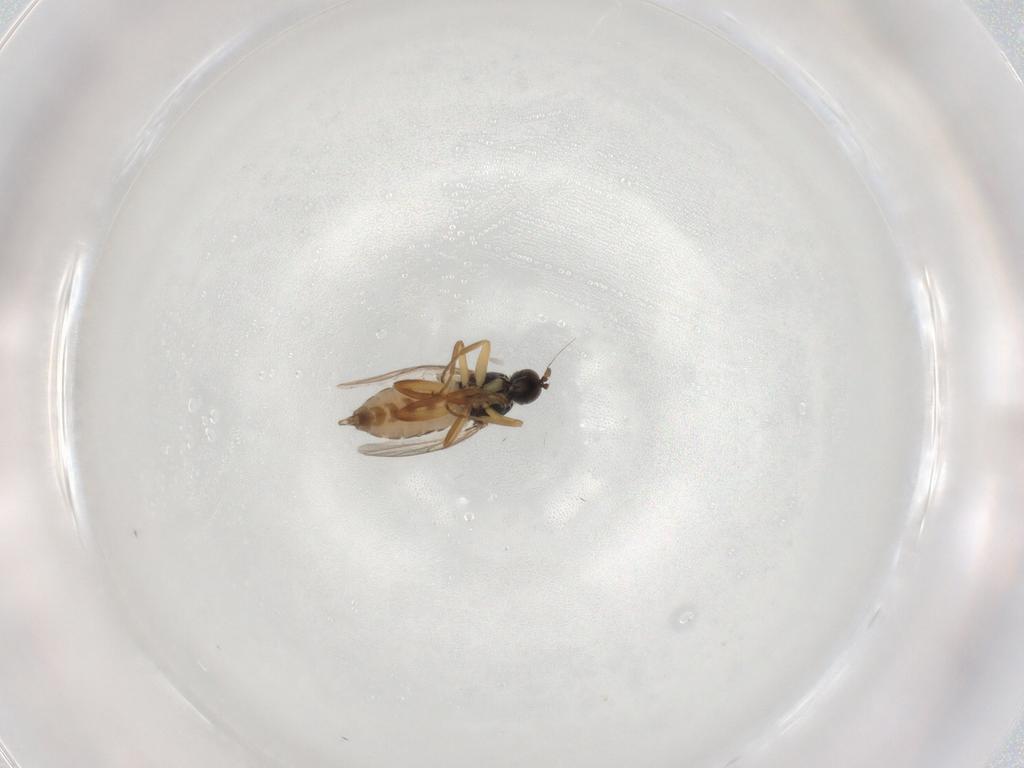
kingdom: Animalia
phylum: Arthropoda
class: Insecta
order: Diptera
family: Hybotidae
